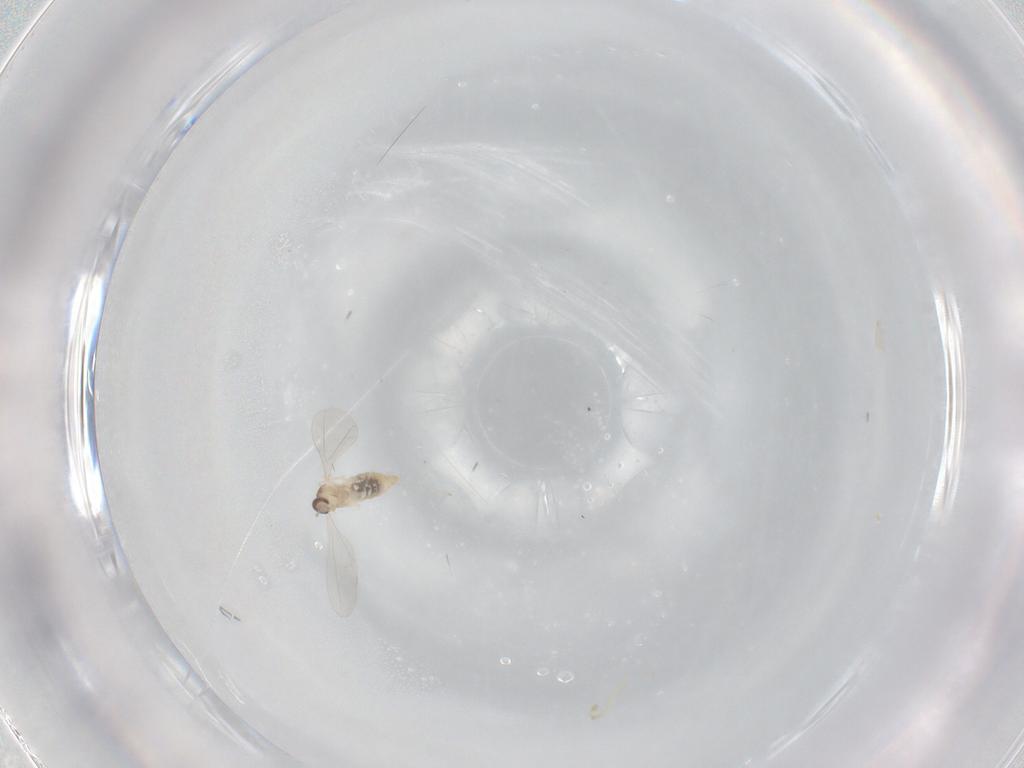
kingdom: Animalia
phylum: Arthropoda
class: Insecta
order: Diptera
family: Cecidomyiidae
